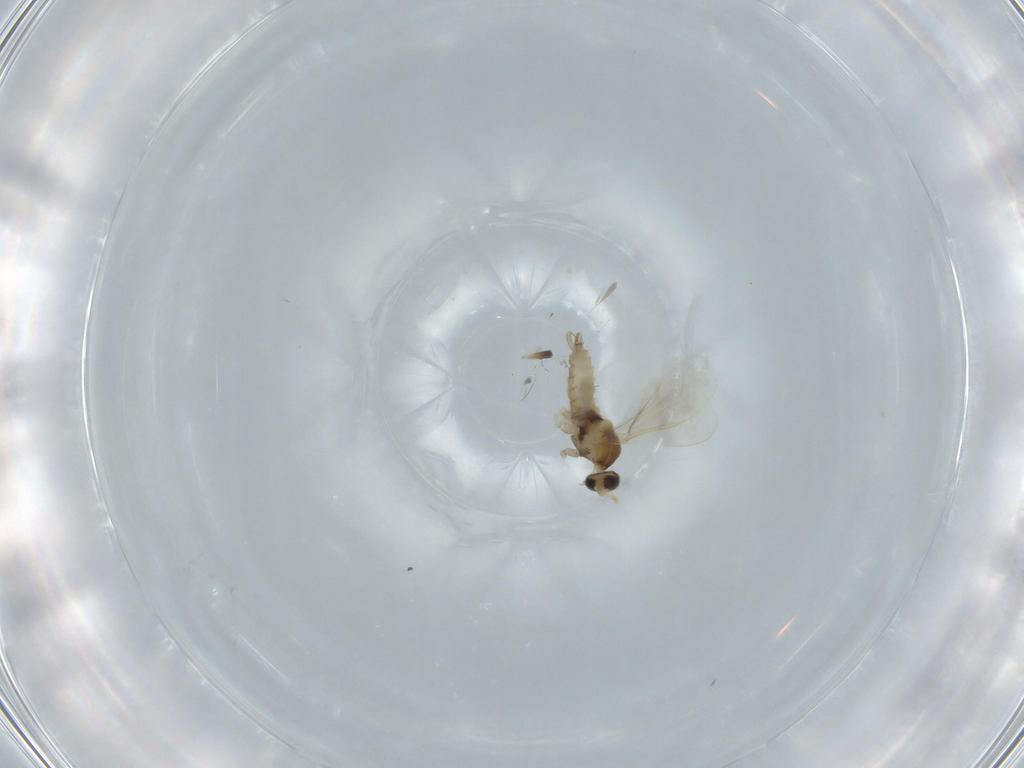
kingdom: Animalia
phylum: Arthropoda
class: Insecta
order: Diptera
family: Cecidomyiidae
